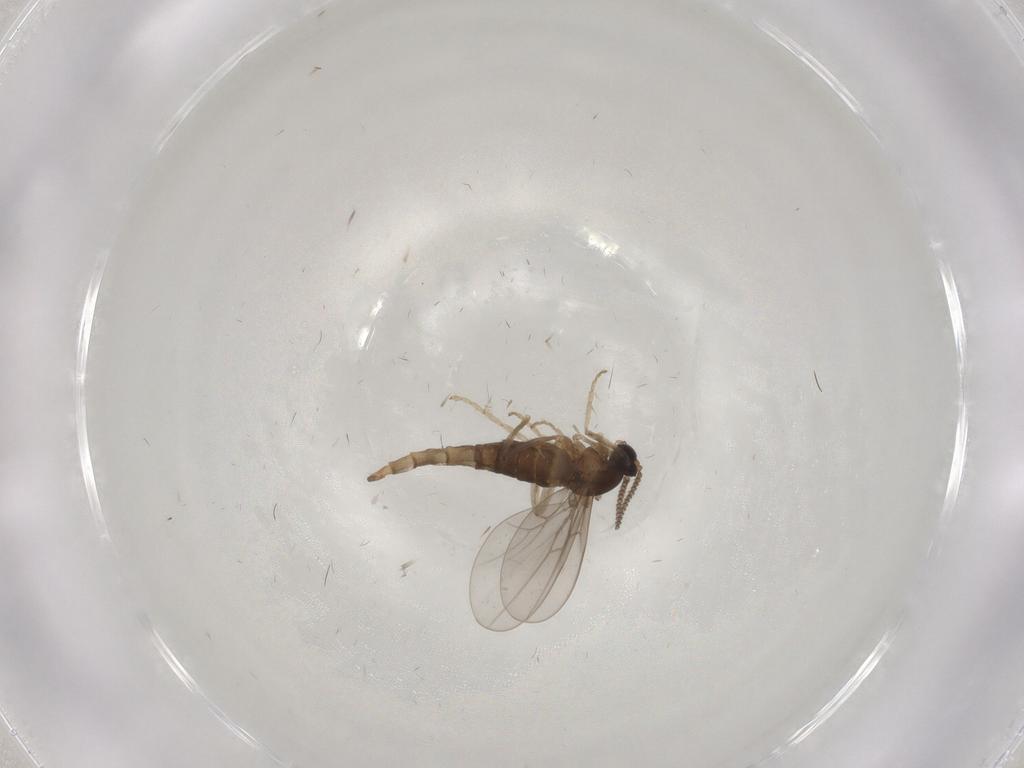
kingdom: Animalia
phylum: Arthropoda
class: Insecta
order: Diptera
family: Cecidomyiidae
